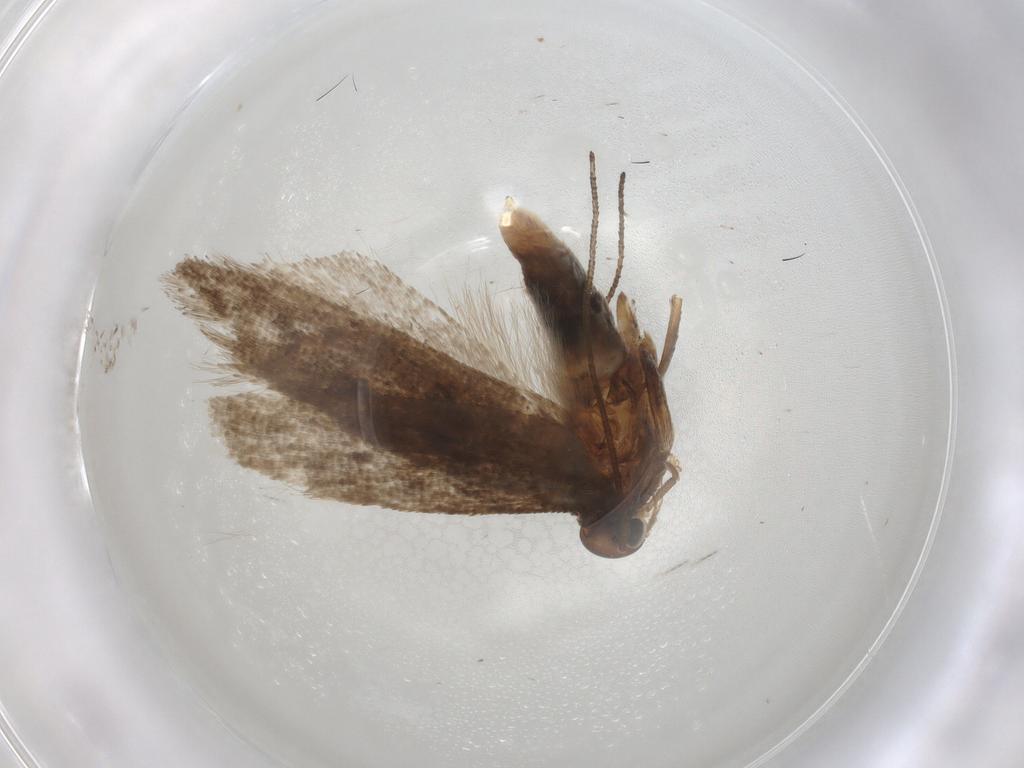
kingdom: Animalia
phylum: Arthropoda
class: Insecta
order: Lepidoptera
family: Gelechiidae
